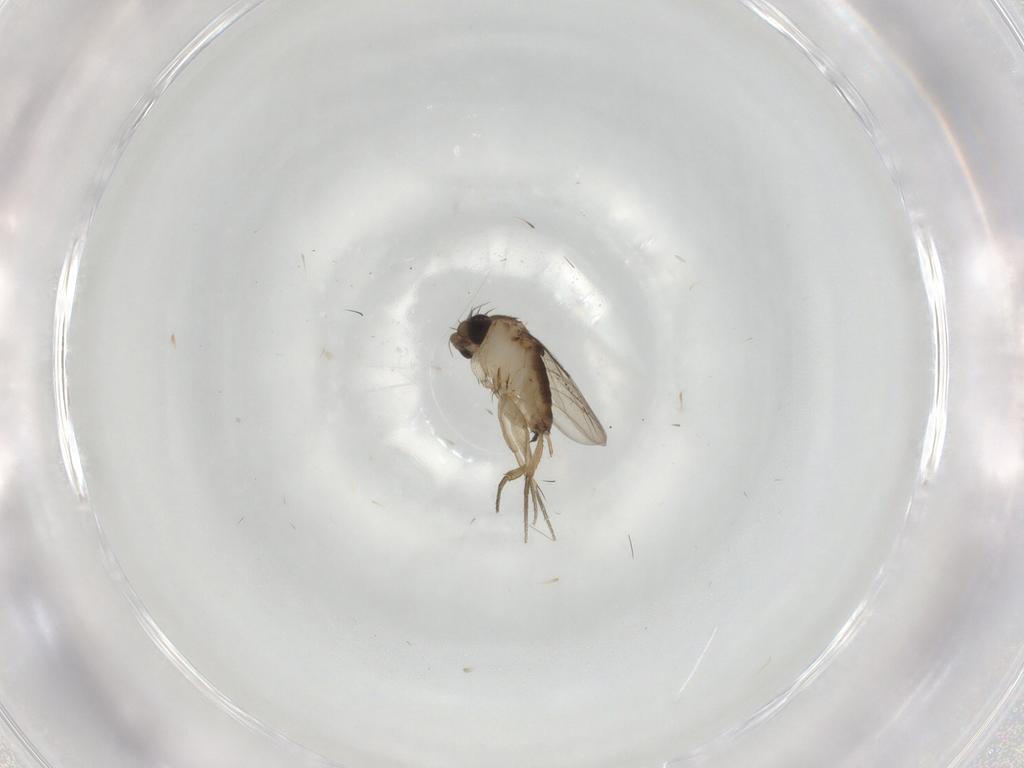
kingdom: Animalia
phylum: Arthropoda
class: Insecta
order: Diptera
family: Phoridae
